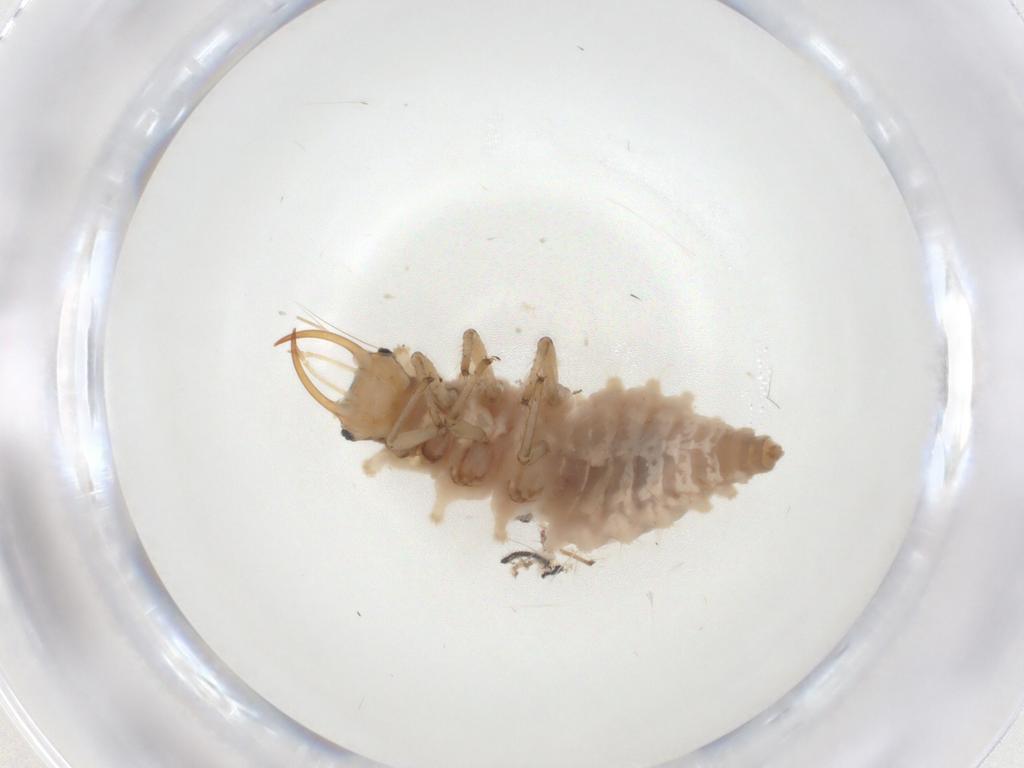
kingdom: Animalia
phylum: Arthropoda
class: Insecta
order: Neuroptera
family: Chrysopidae
